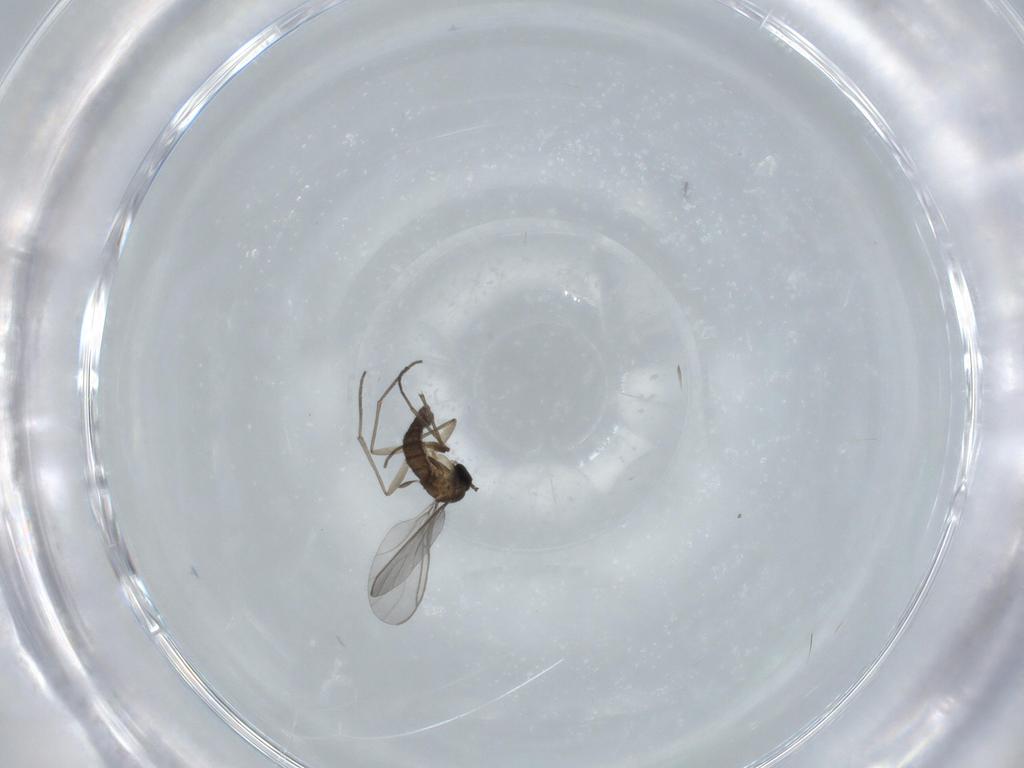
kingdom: Animalia
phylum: Arthropoda
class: Insecta
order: Diptera
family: Sciaridae
